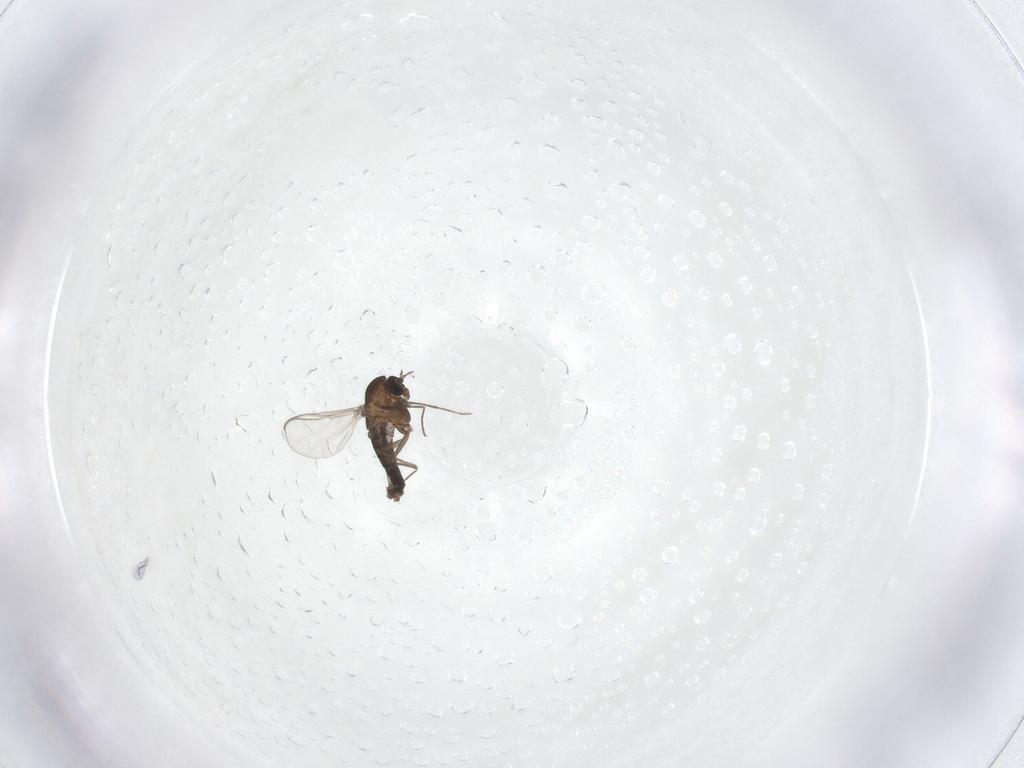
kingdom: Animalia
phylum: Arthropoda
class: Insecta
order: Diptera
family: Chironomidae
